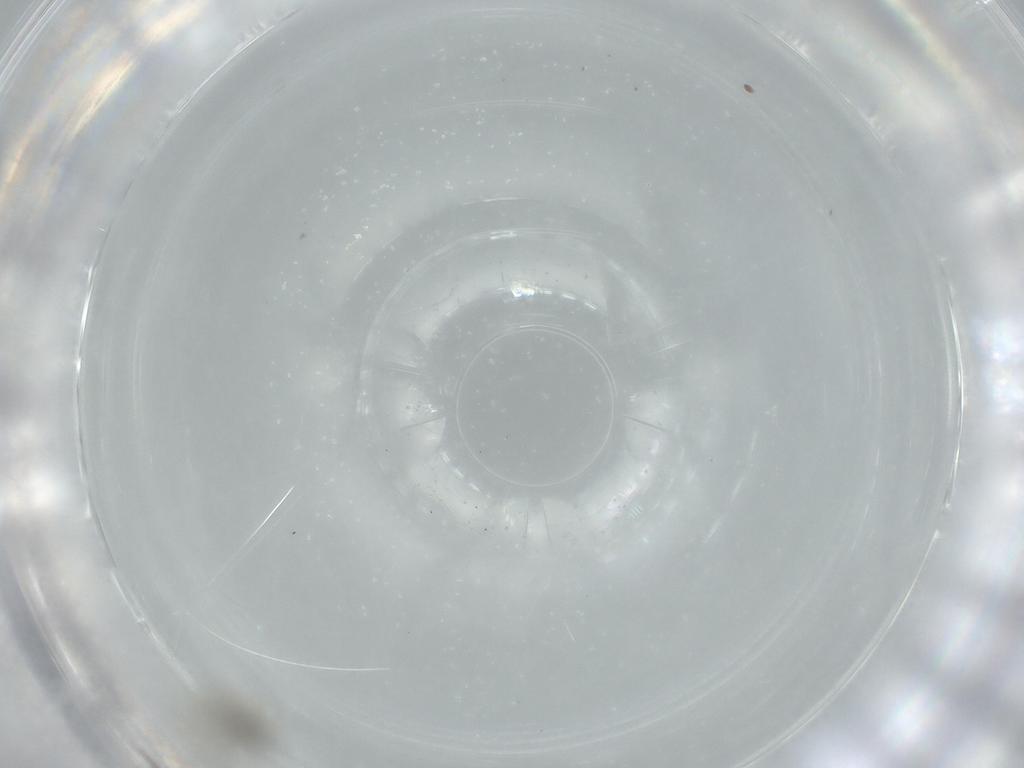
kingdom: Animalia
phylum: Arthropoda
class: Insecta
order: Diptera
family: Cecidomyiidae
